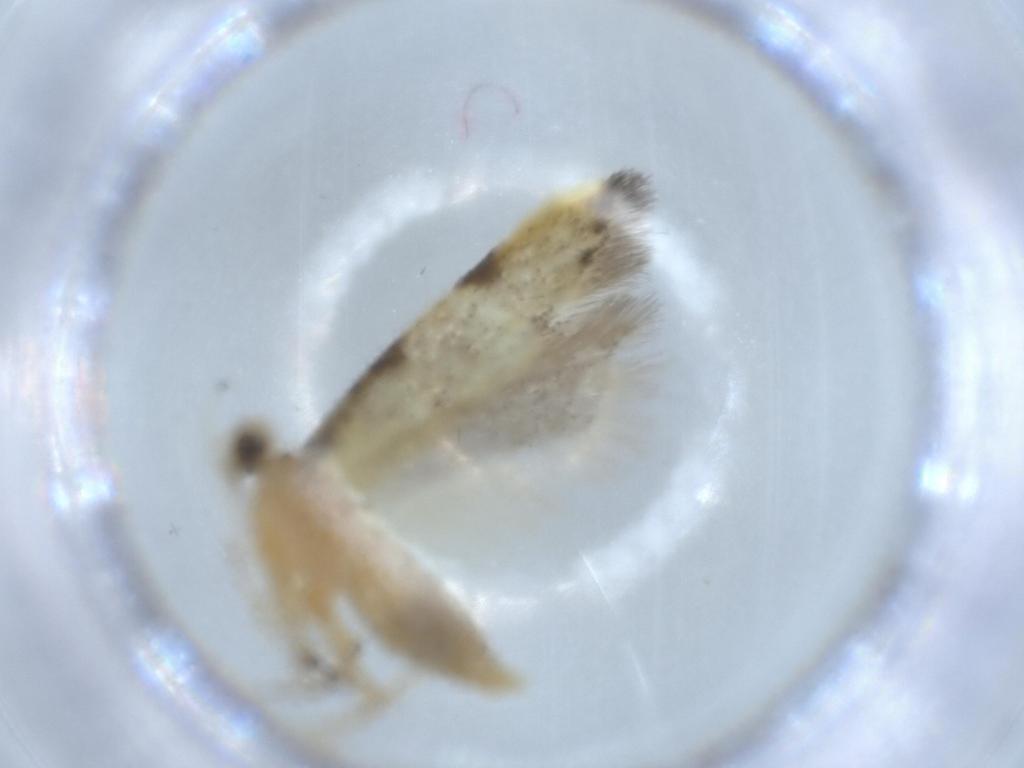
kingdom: Animalia
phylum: Arthropoda
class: Insecta
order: Lepidoptera
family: Autostichidae
